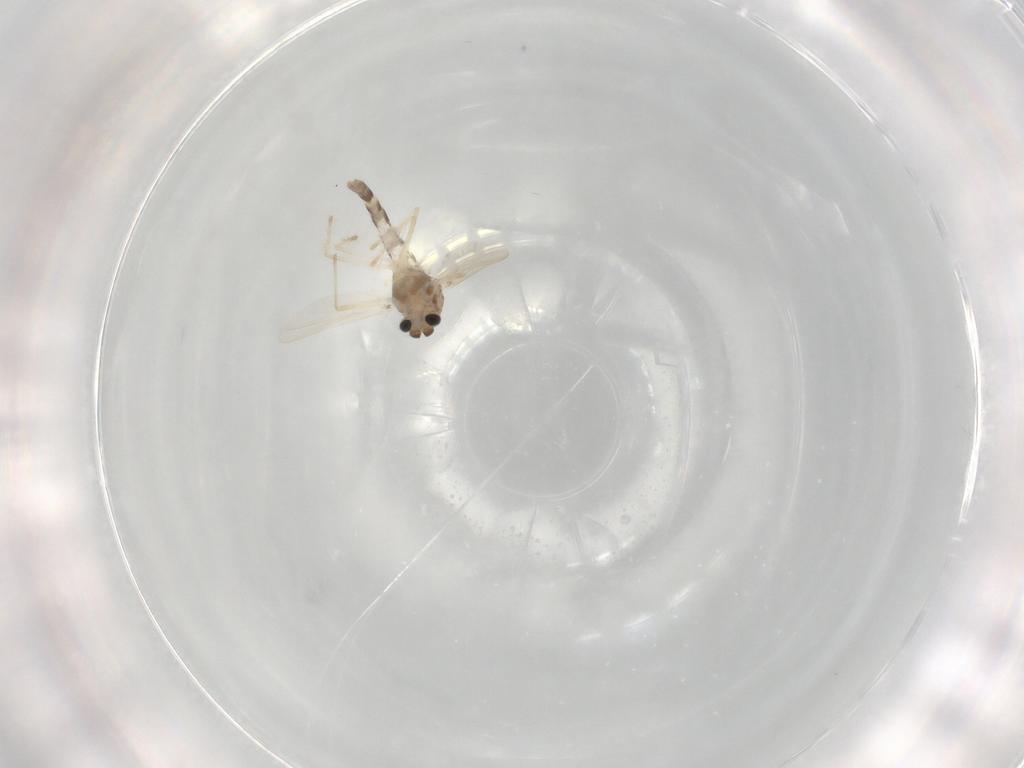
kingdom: Animalia
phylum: Arthropoda
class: Insecta
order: Diptera
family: Chironomidae
